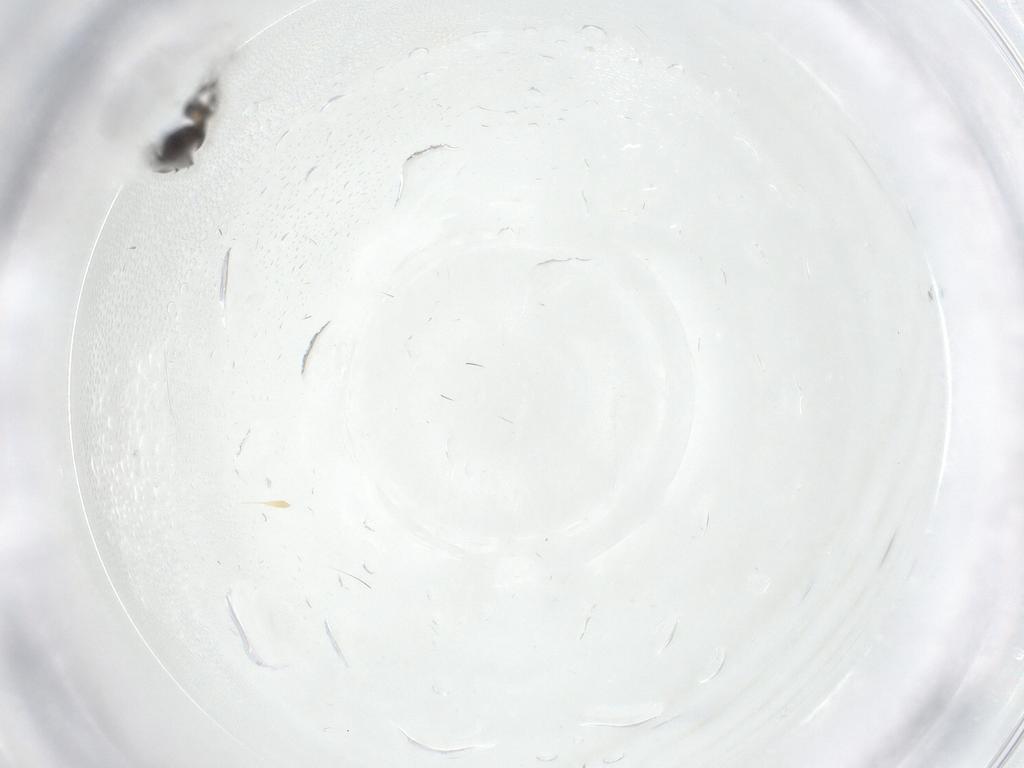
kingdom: Animalia
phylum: Arthropoda
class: Insecta
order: Diptera
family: Phoridae
